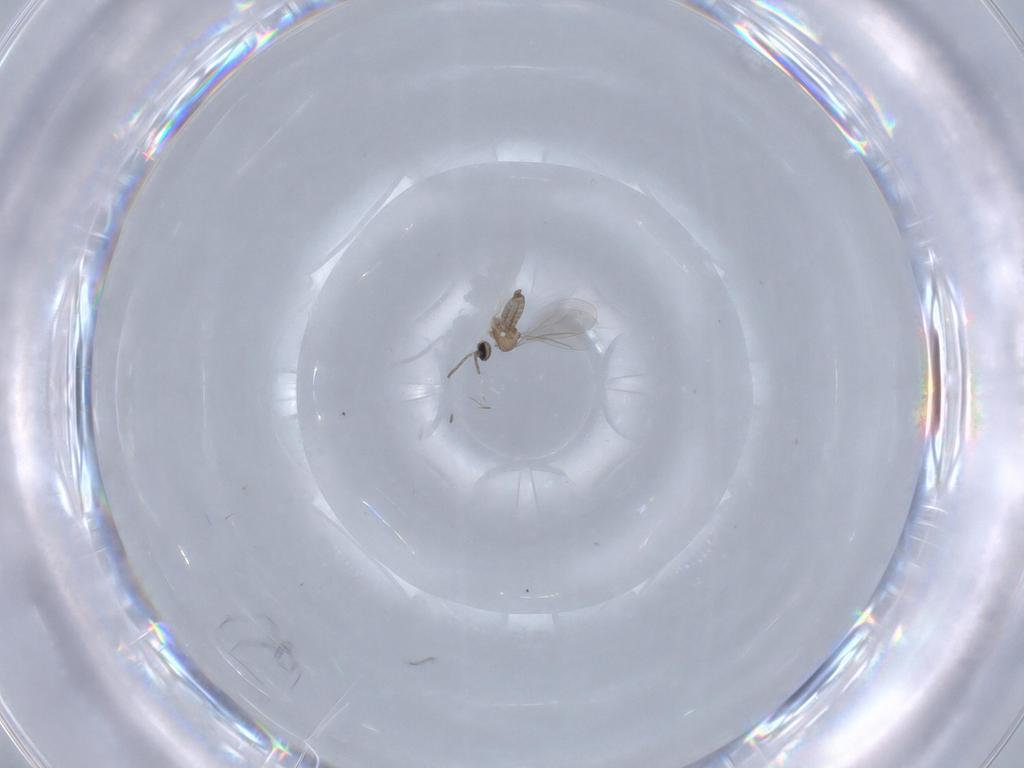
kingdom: Animalia
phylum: Arthropoda
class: Insecta
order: Diptera
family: Cecidomyiidae
